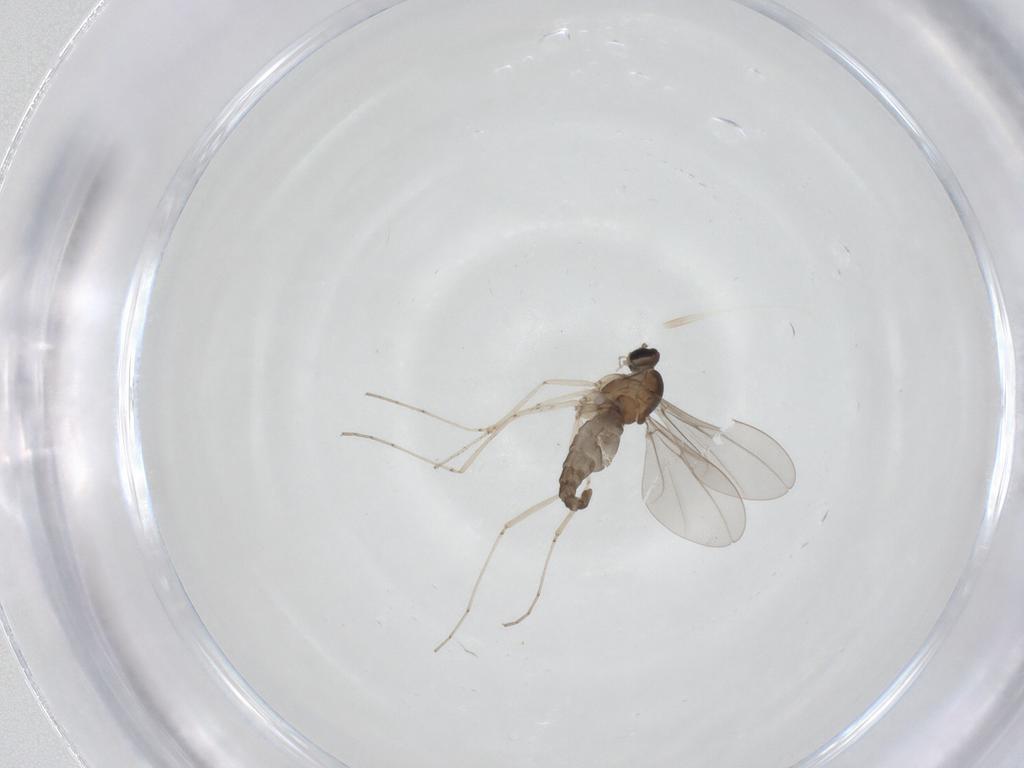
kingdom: Animalia
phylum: Arthropoda
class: Insecta
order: Diptera
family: Cecidomyiidae
